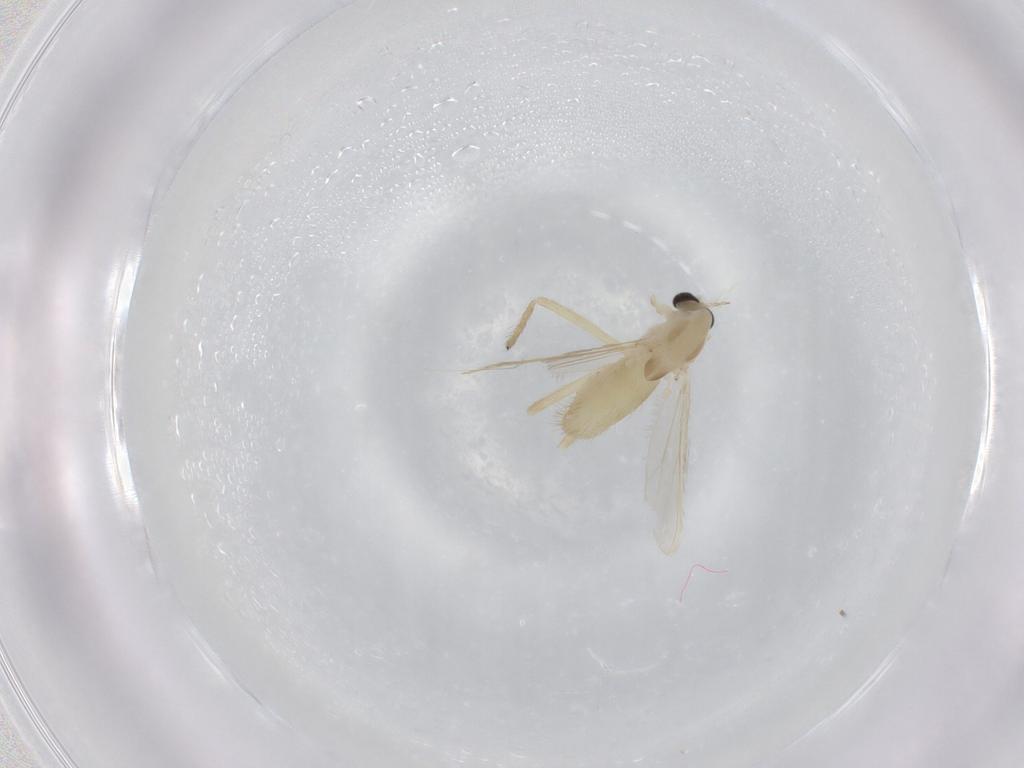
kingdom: Animalia
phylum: Arthropoda
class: Insecta
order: Diptera
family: Chironomidae
